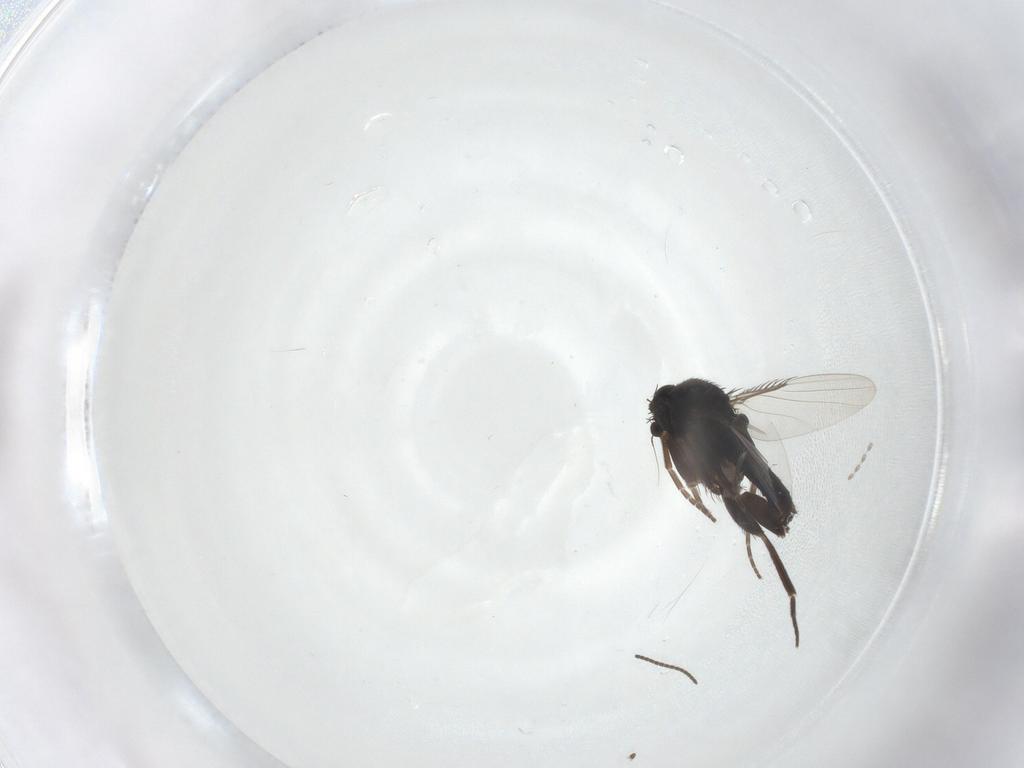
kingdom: Animalia
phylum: Arthropoda
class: Insecta
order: Diptera
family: Phoridae
